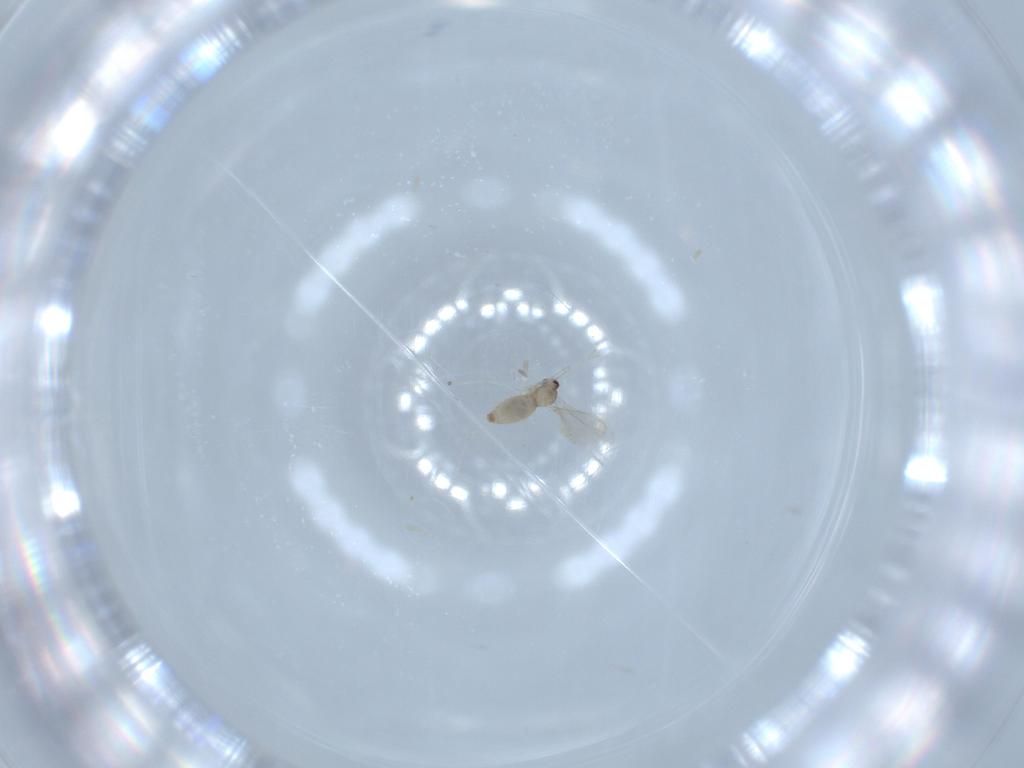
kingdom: Animalia
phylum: Arthropoda
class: Insecta
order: Diptera
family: Cecidomyiidae
